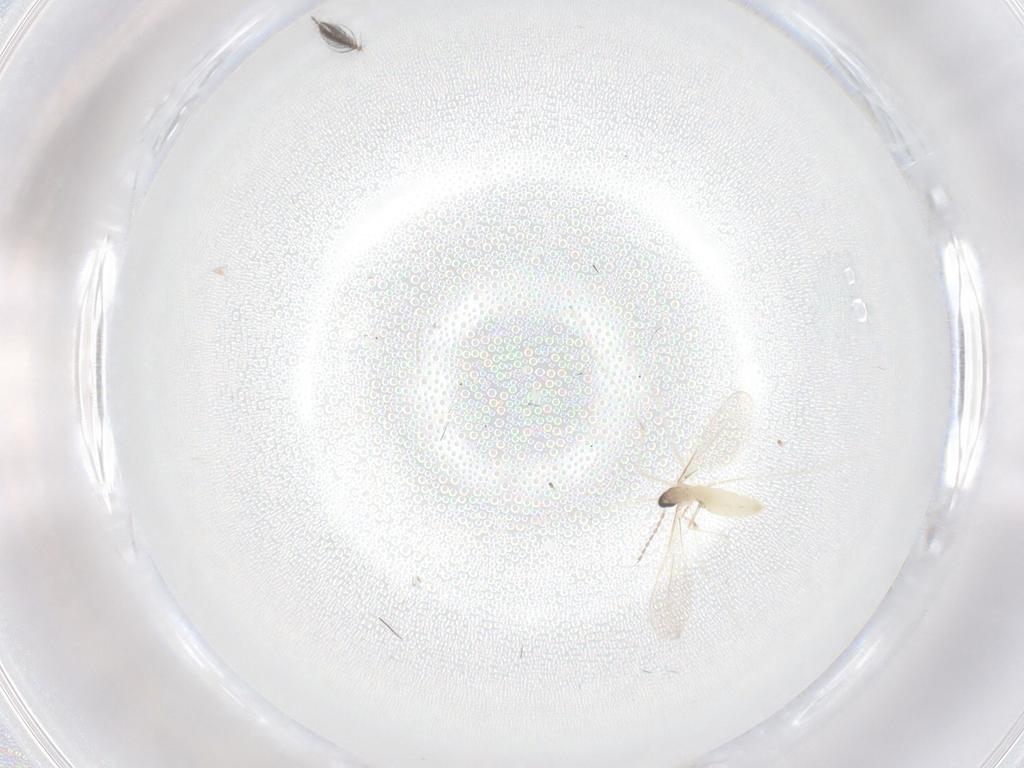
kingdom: Animalia
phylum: Arthropoda
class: Insecta
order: Diptera
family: Cecidomyiidae
